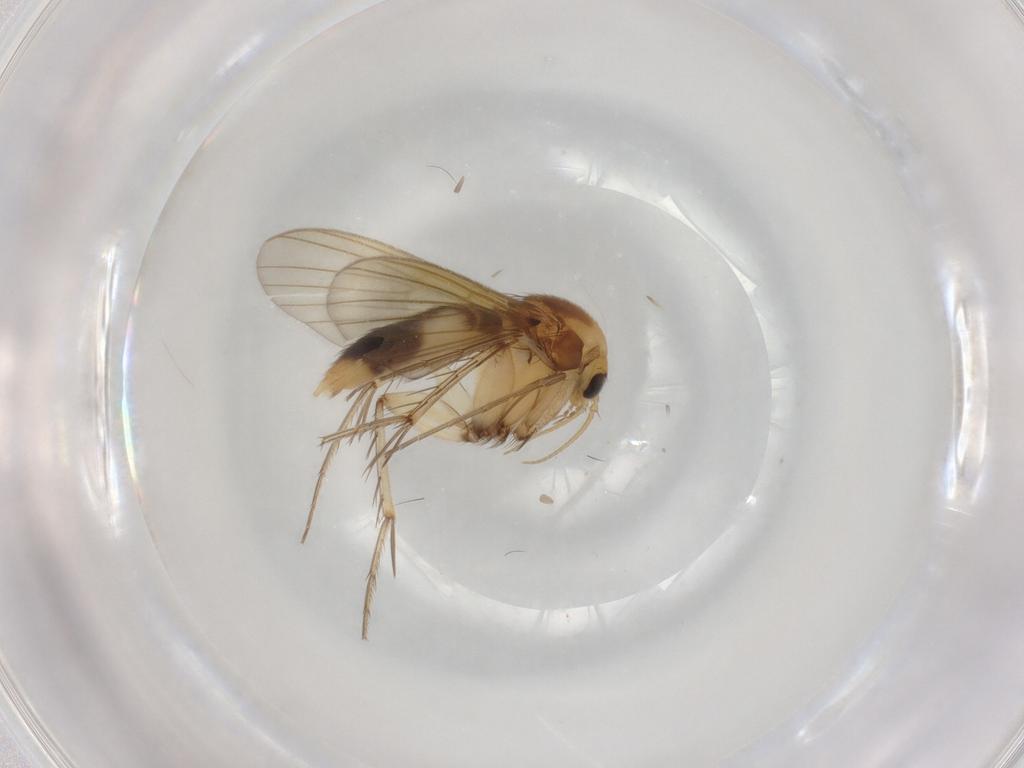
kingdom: Animalia
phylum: Arthropoda
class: Insecta
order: Diptera
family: Mycetophilidae
